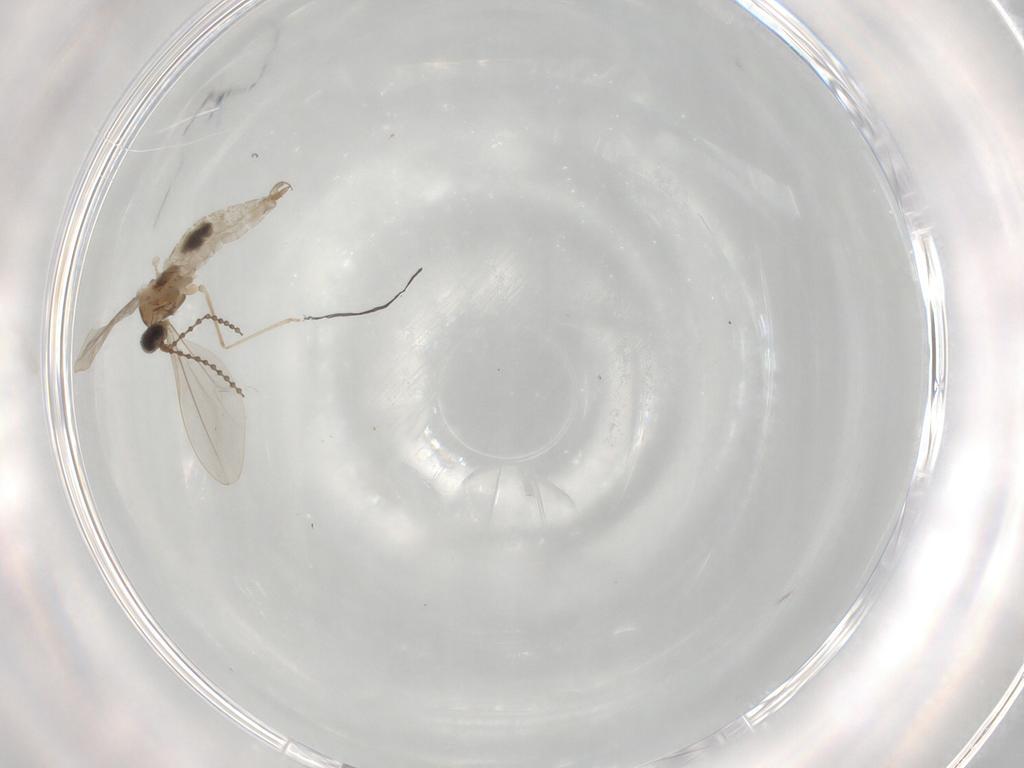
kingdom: Animalia
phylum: Arthropoda
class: Insecta
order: Diptera
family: Cecidomyiidae
